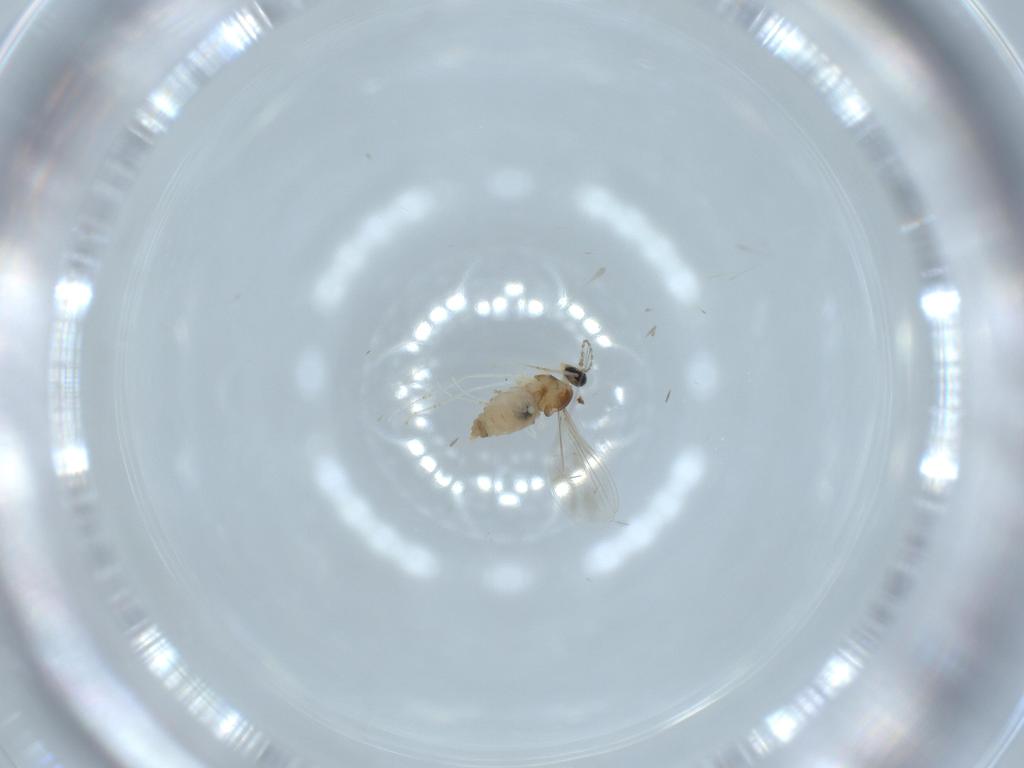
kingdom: Animalia
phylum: Arthropoda
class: Insecta
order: Diptera
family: Cecidomyiidae
